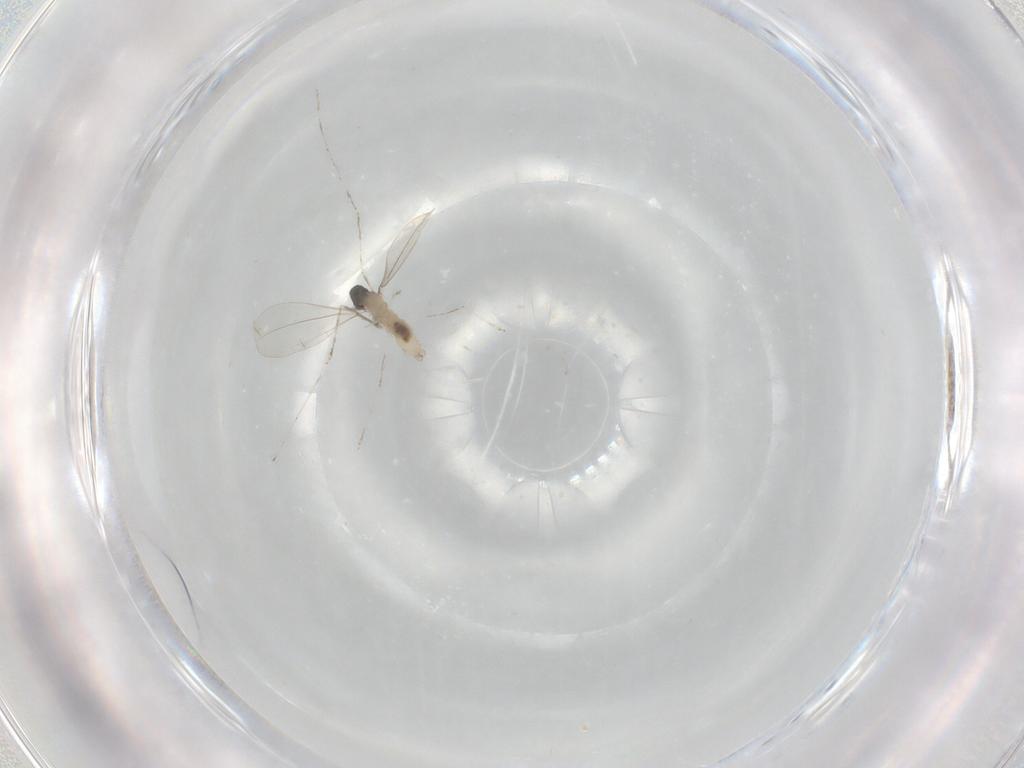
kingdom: Animalia
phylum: Arthropoda
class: Insecta
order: Diptera
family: Cecidomyiidae
